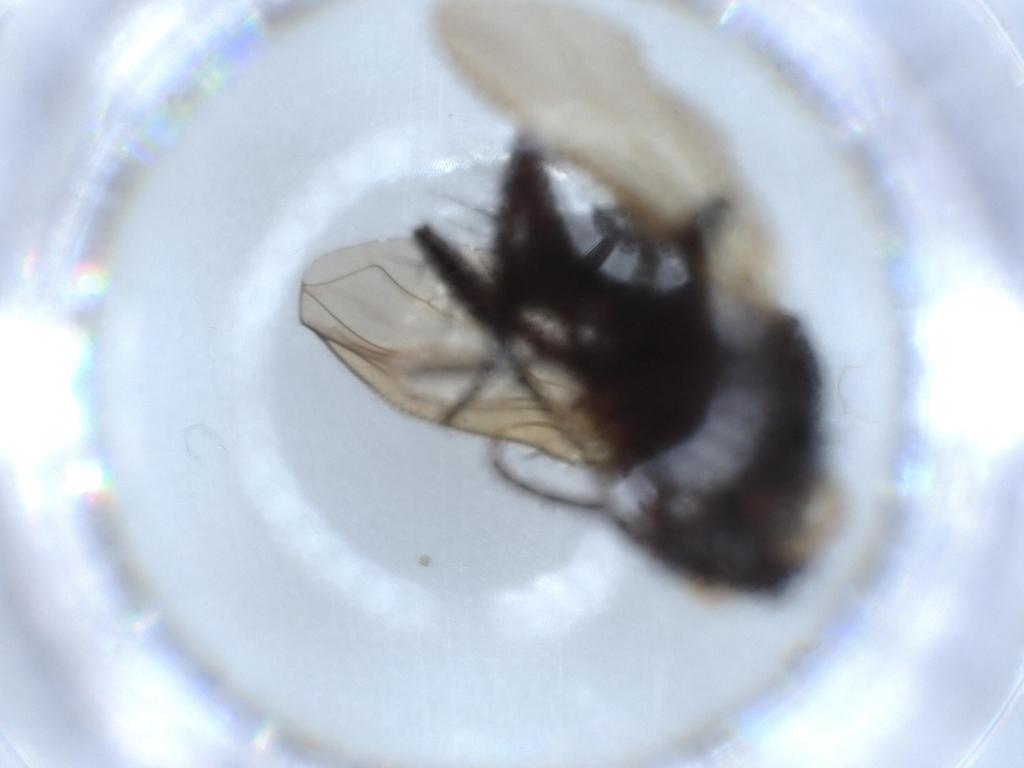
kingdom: Animalia
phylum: Arthropoda
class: Insecta
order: Diptera
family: Tachinidae
